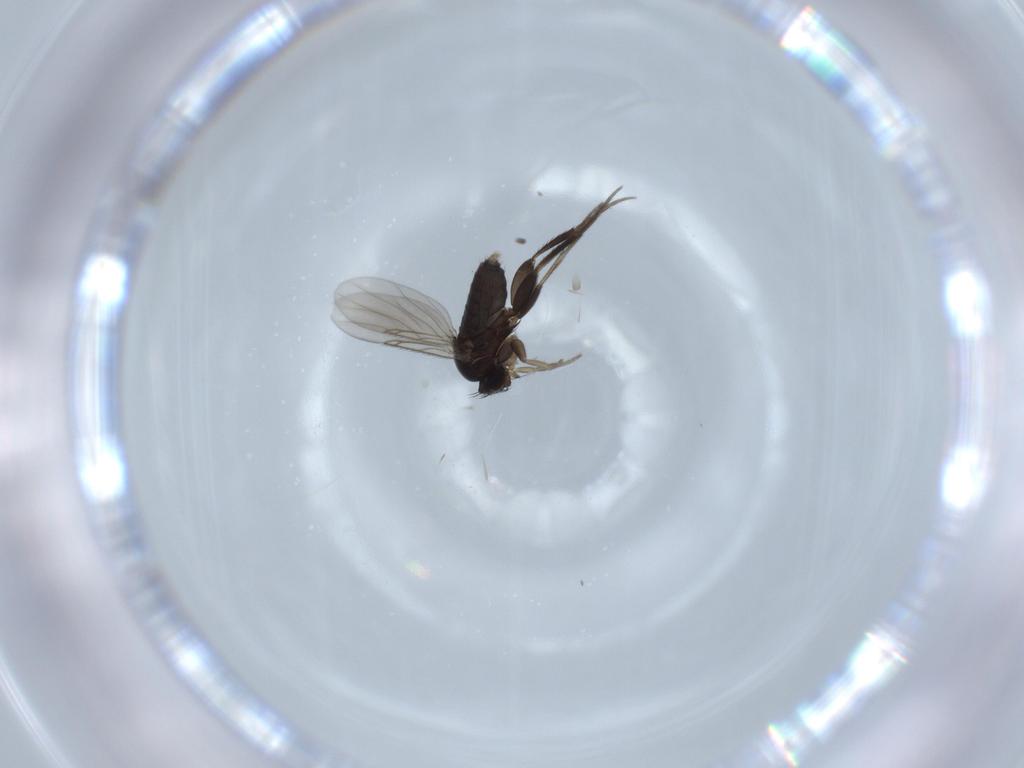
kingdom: Animalia
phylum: Arthropoda
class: Insecta
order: Diptera
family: Phoridae
